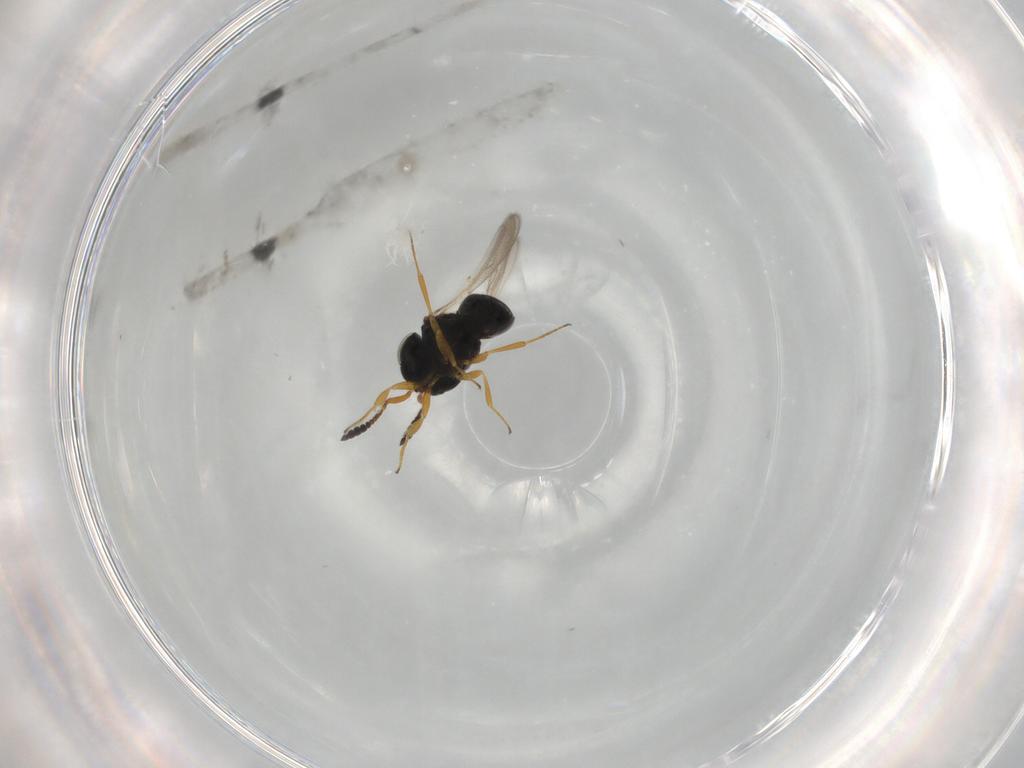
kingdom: Animalia
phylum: Arthropoda
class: Insecta
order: Hymenoptera
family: Scelionidae
